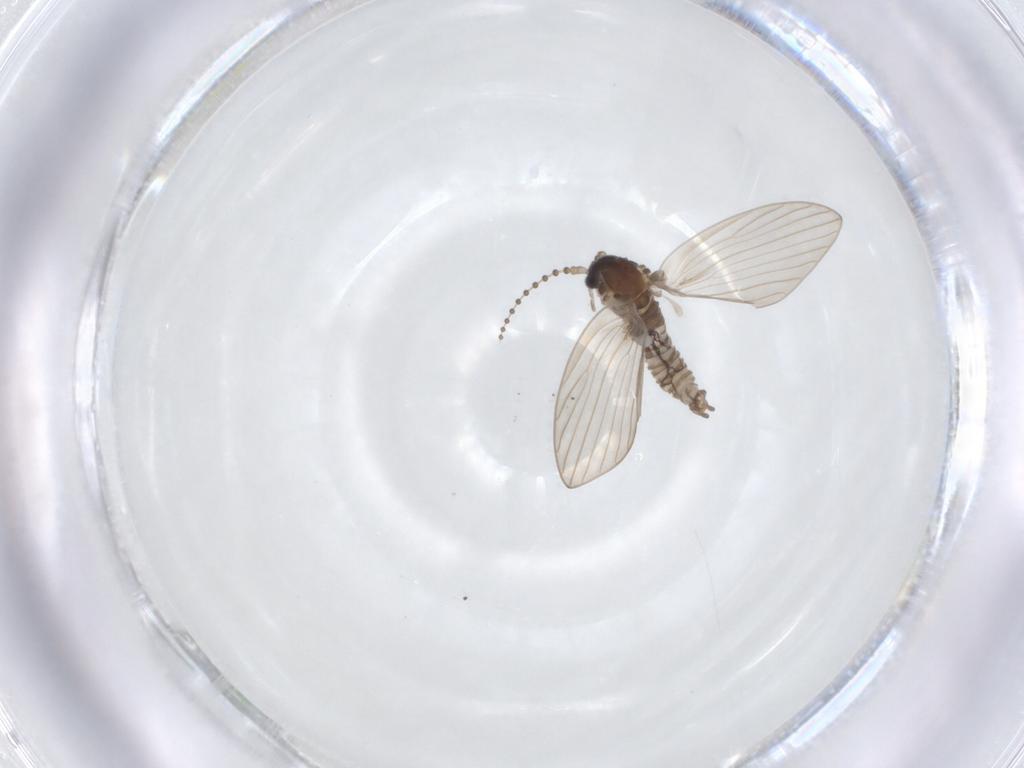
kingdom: Animalia
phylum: Arthropoda
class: Insecta
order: Diptera
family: Psychodidae
